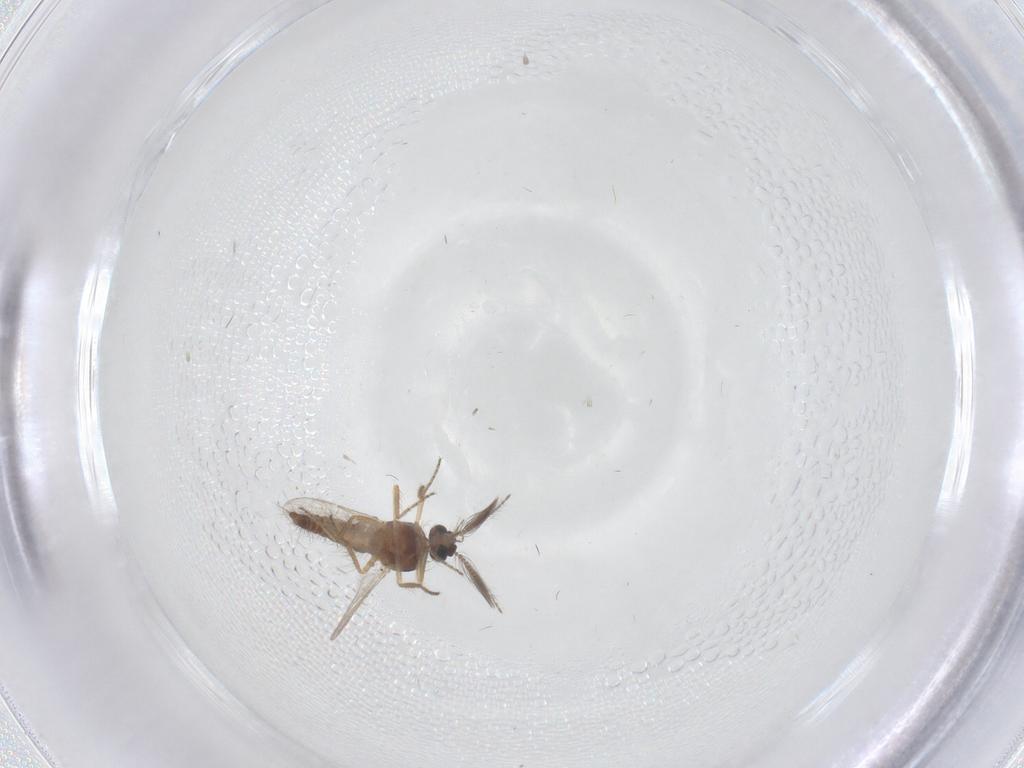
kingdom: Animalia
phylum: Arthropoda
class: Insecta
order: Diptera
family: Ceratopogonidae
